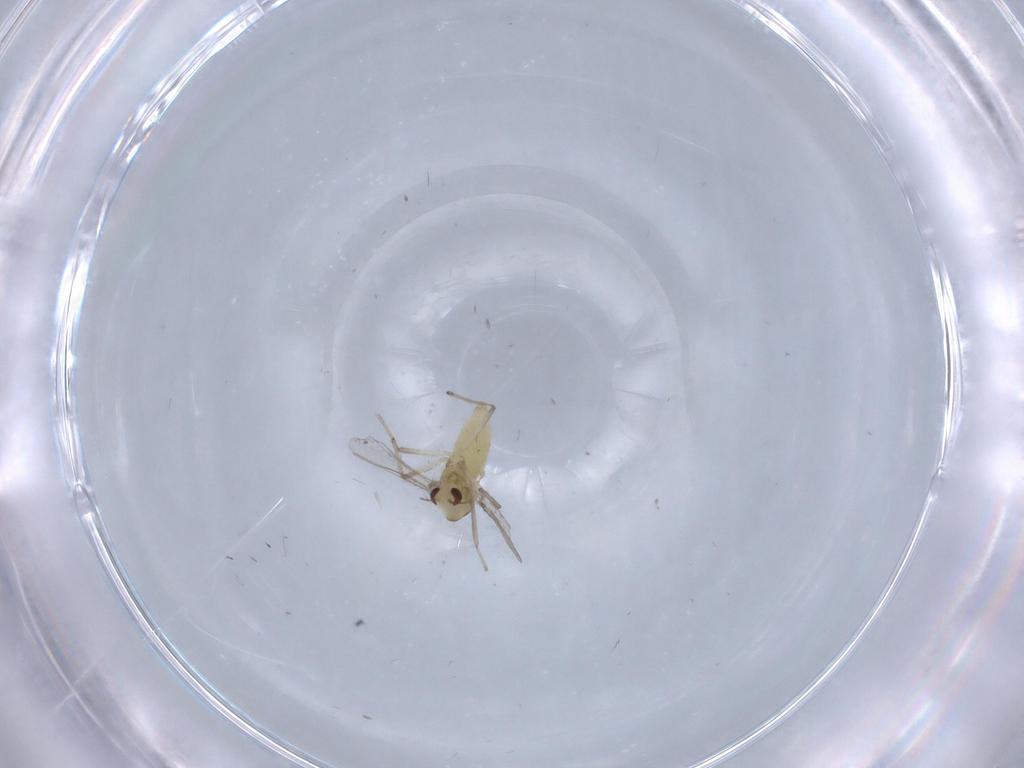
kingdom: Animalia
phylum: Arthropoda
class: Insecta
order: Diptera
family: Chironomidae
